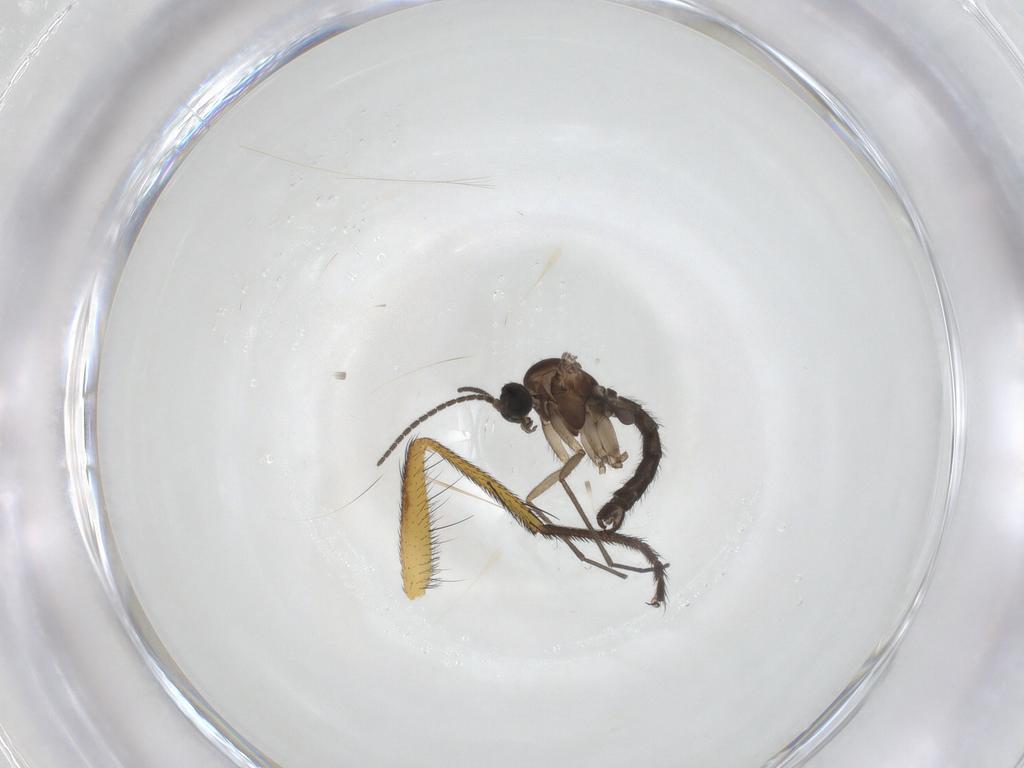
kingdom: Animalia
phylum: Arthropoda
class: Insecta
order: Diptera
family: Sciaridae
